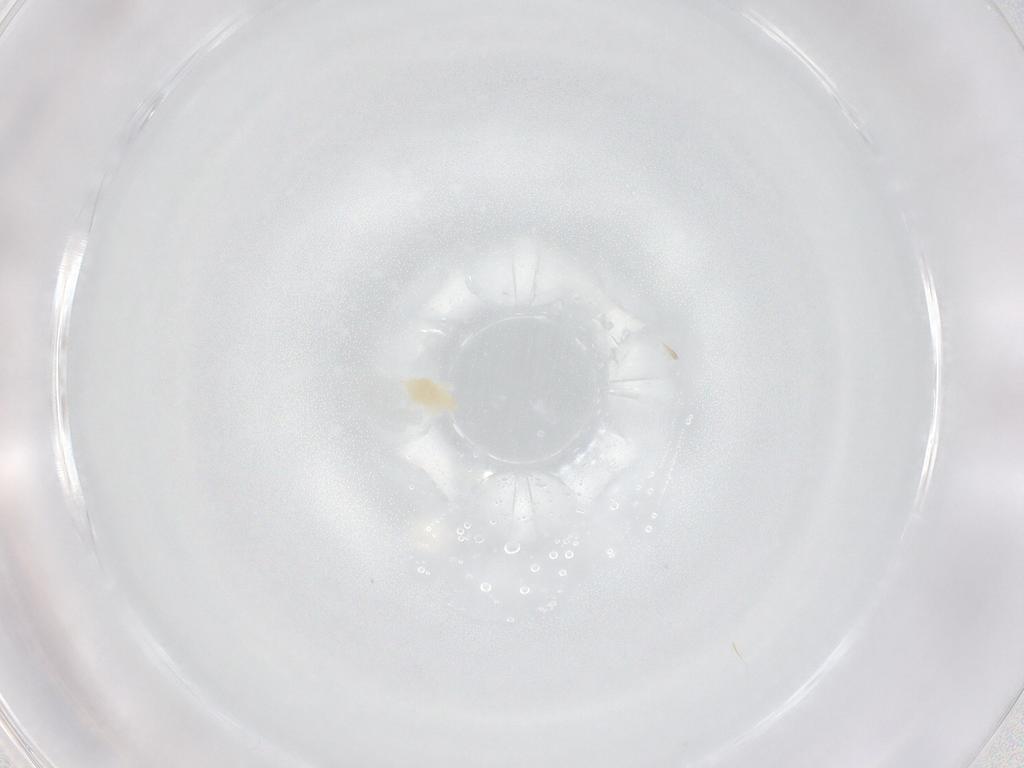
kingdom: Animalia
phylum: Arthropoda
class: Arachnida
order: Trombidiformes
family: Eupodidae
